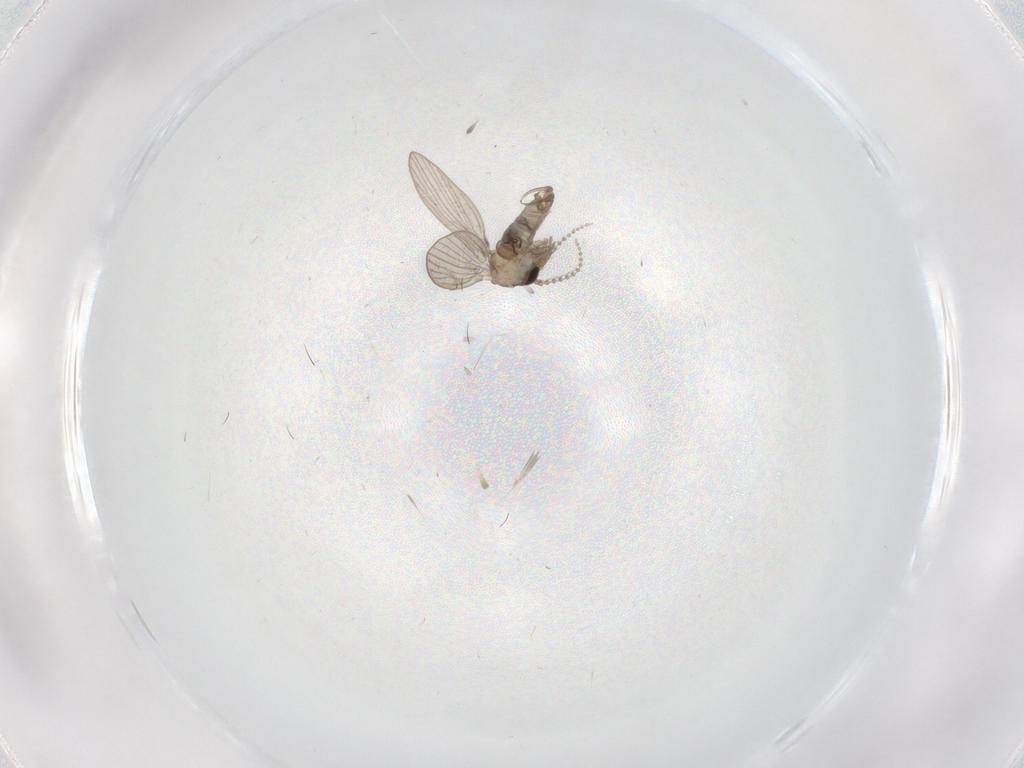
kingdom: Animalia
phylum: Arthropoda
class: Insecta
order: Diptera
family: Psychodidae
